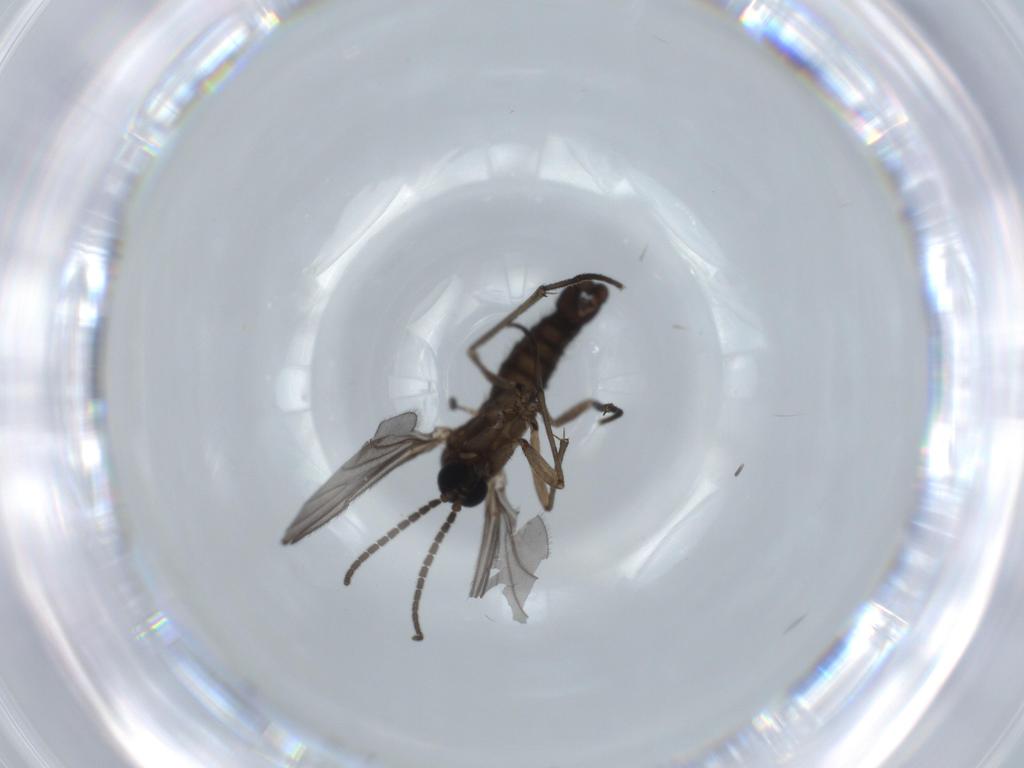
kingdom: Animalia
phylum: Arthropoda
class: Insecta
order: Diptera
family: Sciaridae
